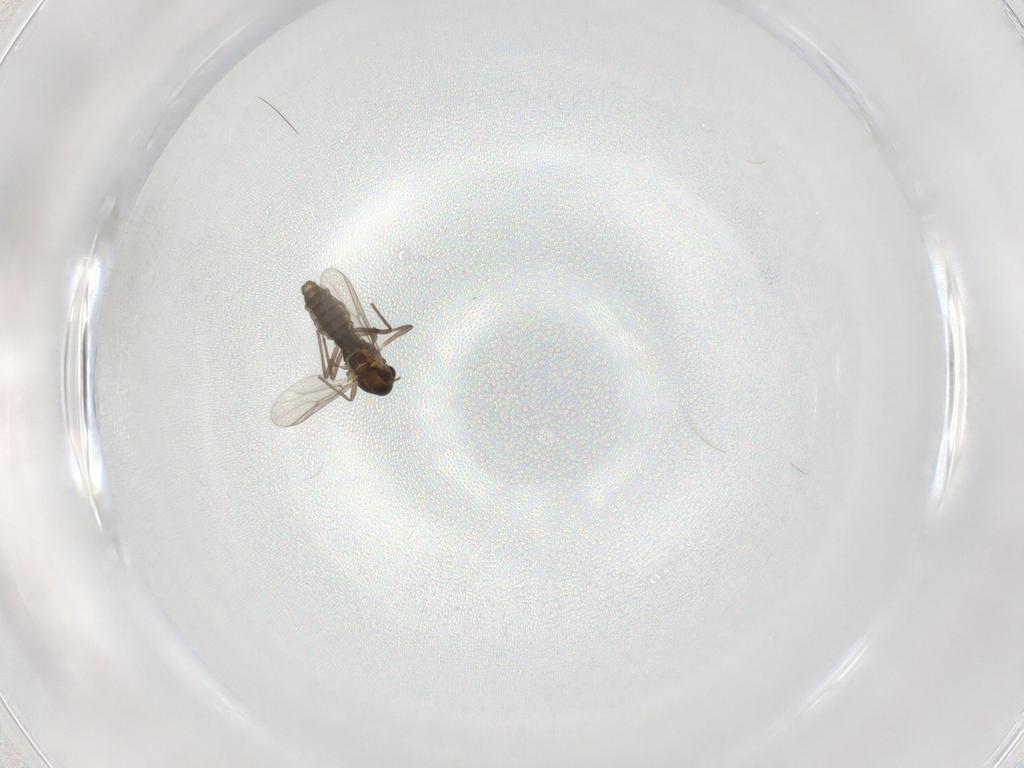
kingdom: Animalia
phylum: Arthropoda
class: Insecta
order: Diptera
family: Chironomidae
